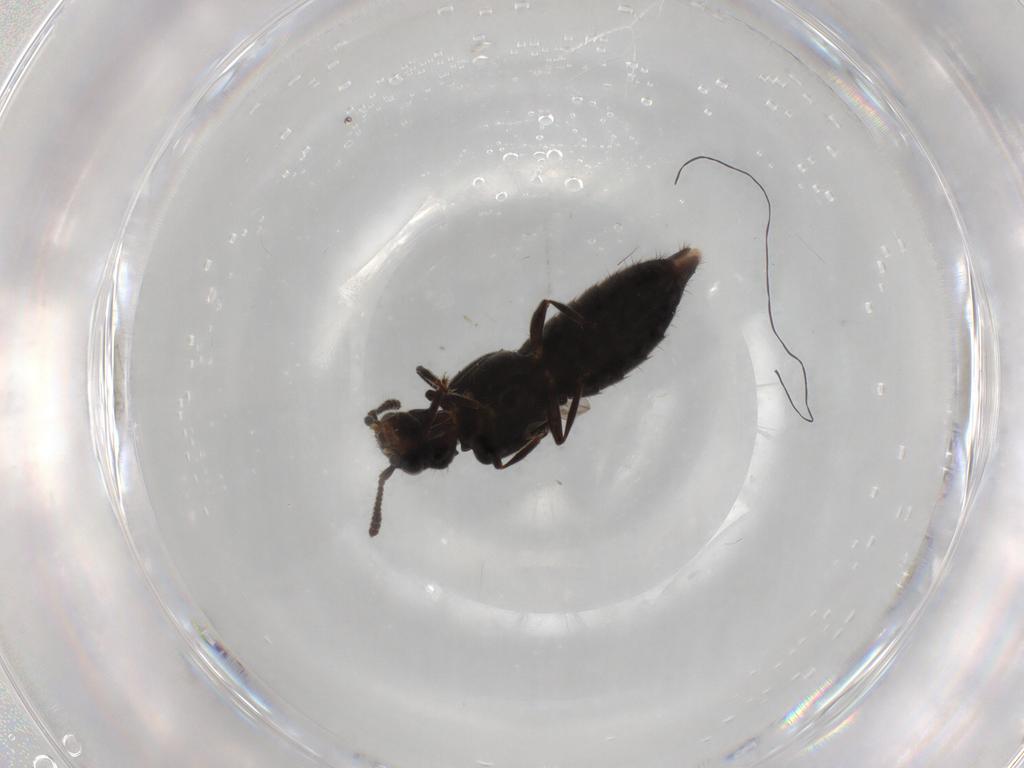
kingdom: Animalia
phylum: Arthropoda
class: Insecta
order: Coleoptera
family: Staphylinidae
